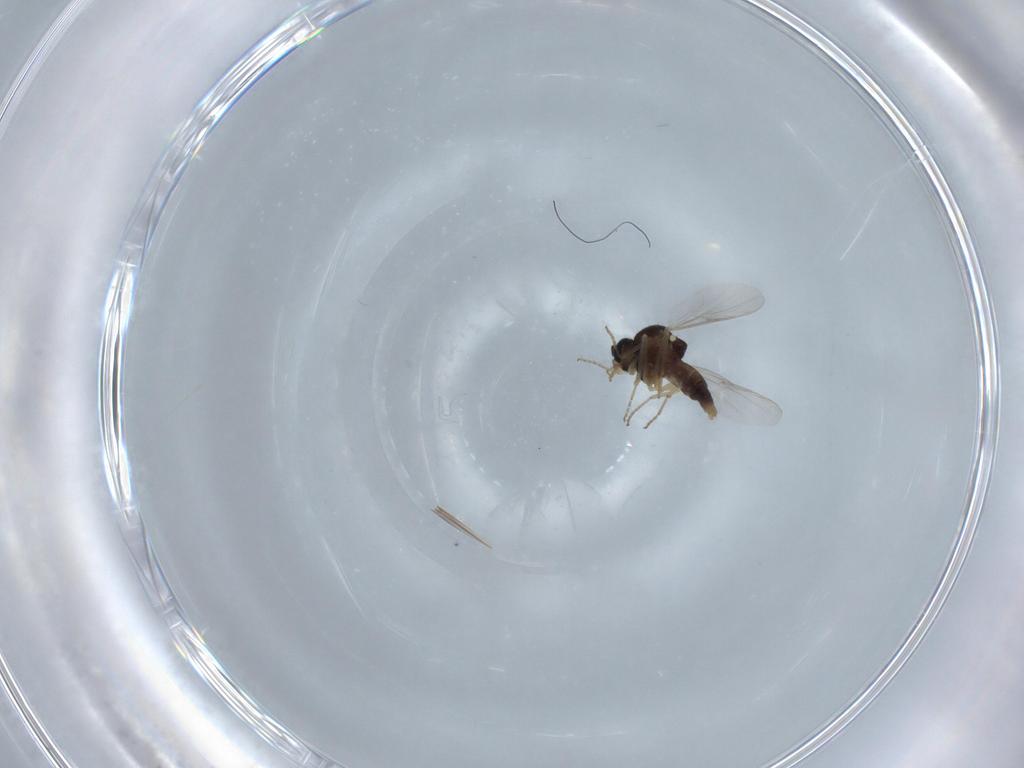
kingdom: Animalia
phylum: Arthropoda
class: Insecta
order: Diptera
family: Ceratopogonidae
